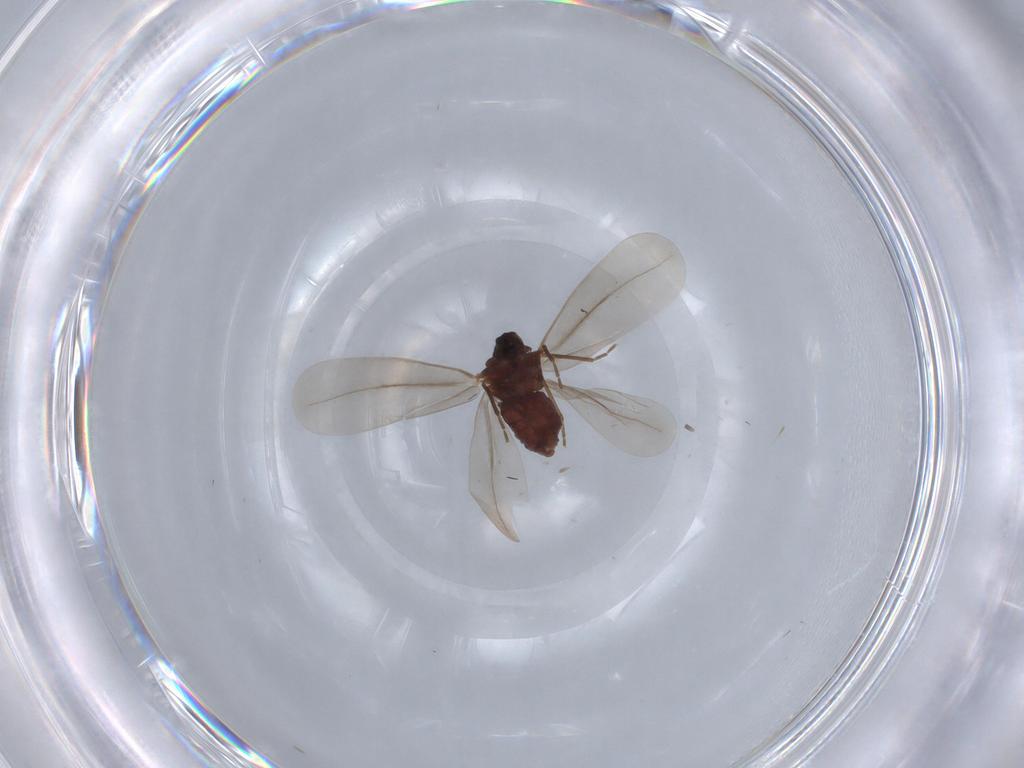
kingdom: Animalia
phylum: Arthropoda
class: Insecta
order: Hemiptera
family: Aleyrodidae
